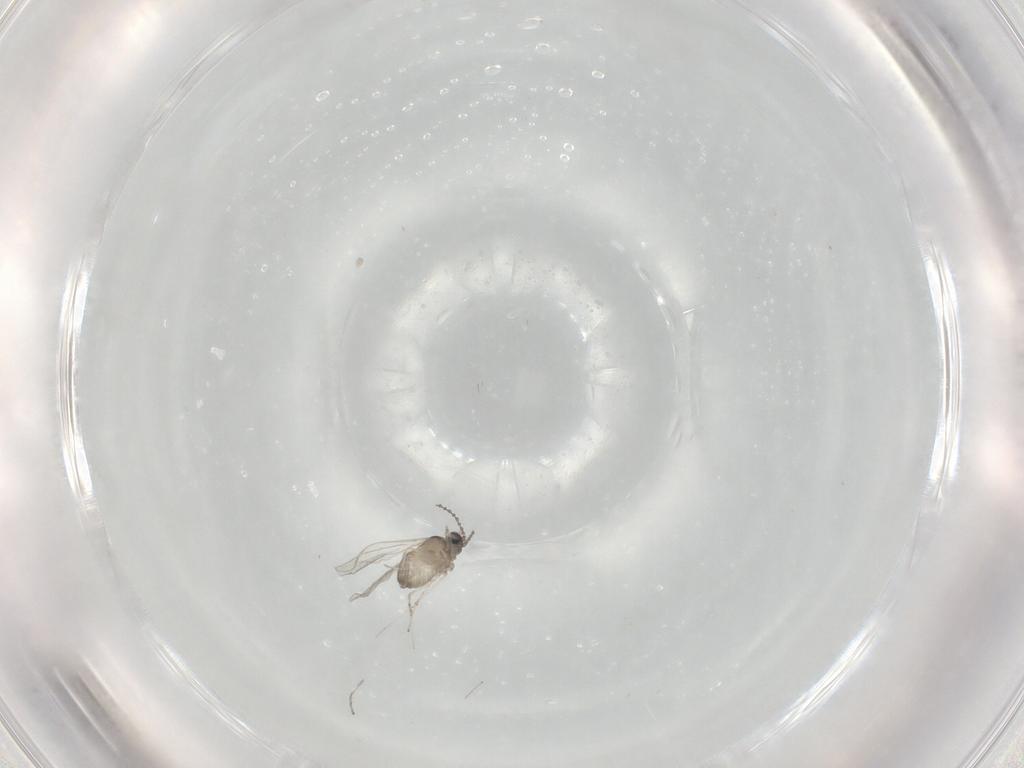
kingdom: Animalia
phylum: Arthropoda
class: Insecta
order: Diptera
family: Cecidomyiidae
